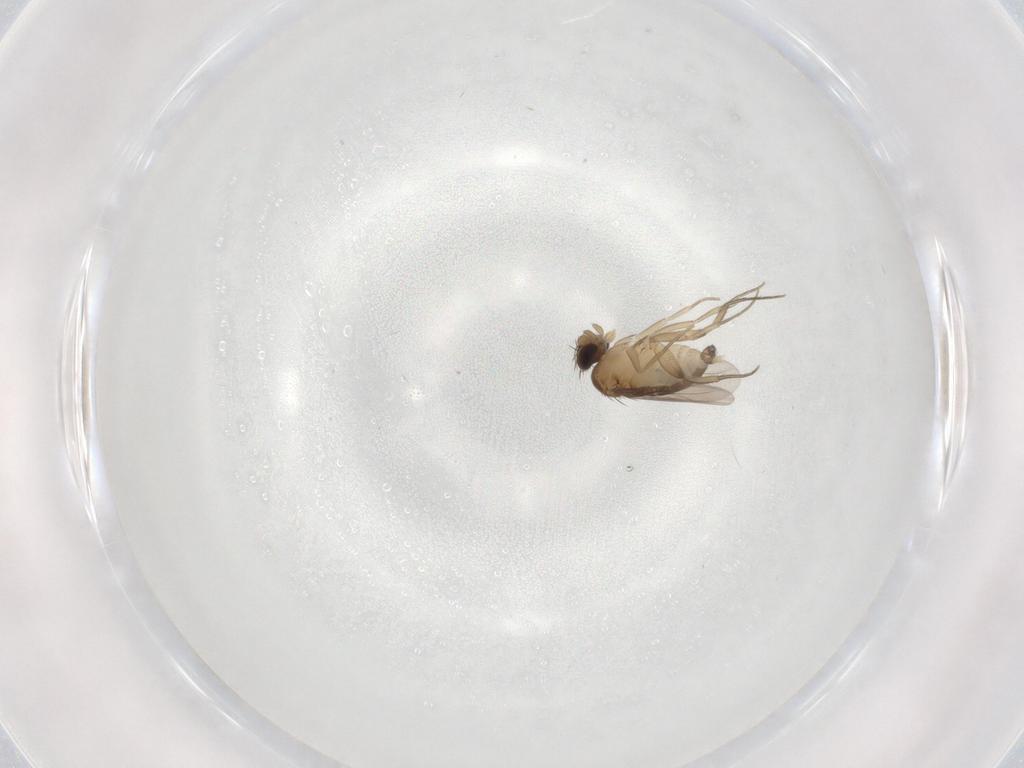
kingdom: Animalia
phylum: Arthropoda
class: Insecta
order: Diptera
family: Phoridae
